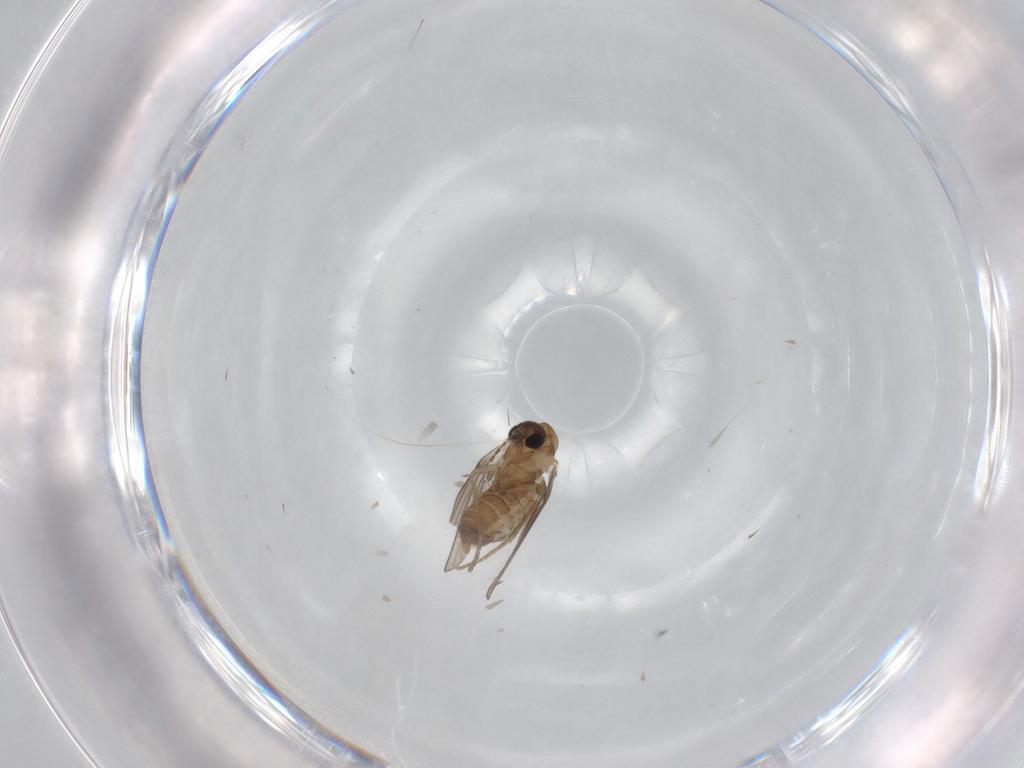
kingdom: Animalia
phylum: Arthropoda
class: Insecta
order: Diptera
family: Chironomidae
